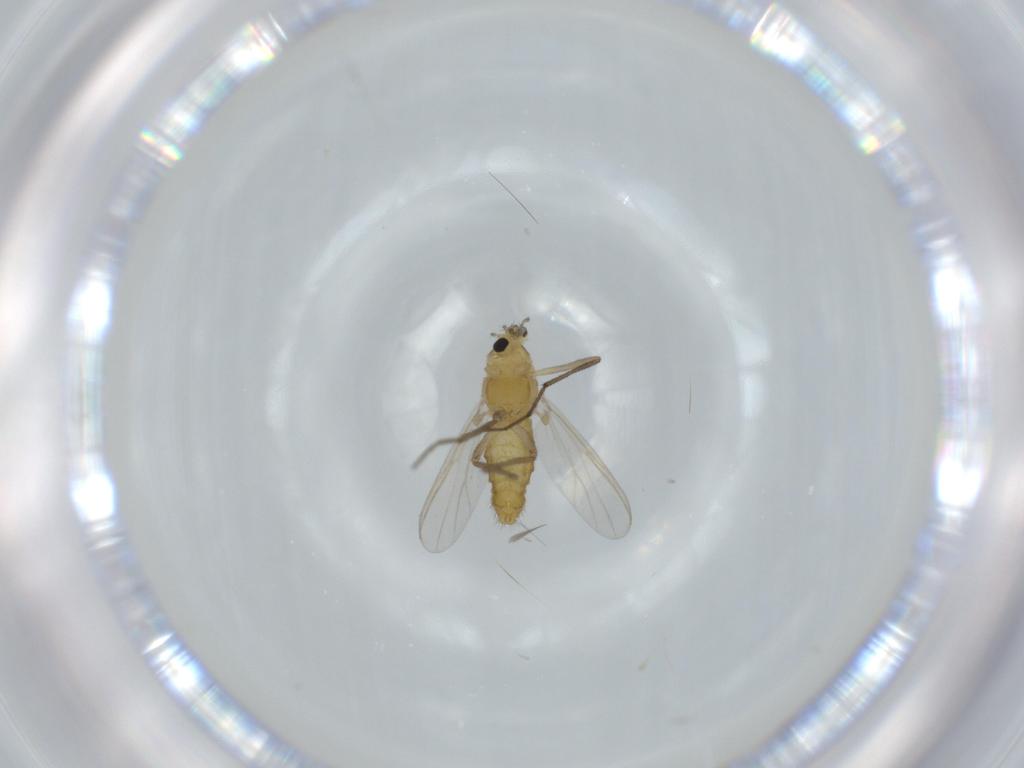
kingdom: Animalia
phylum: Arthropoda
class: Insecta
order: Diptera
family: Chironomidae
